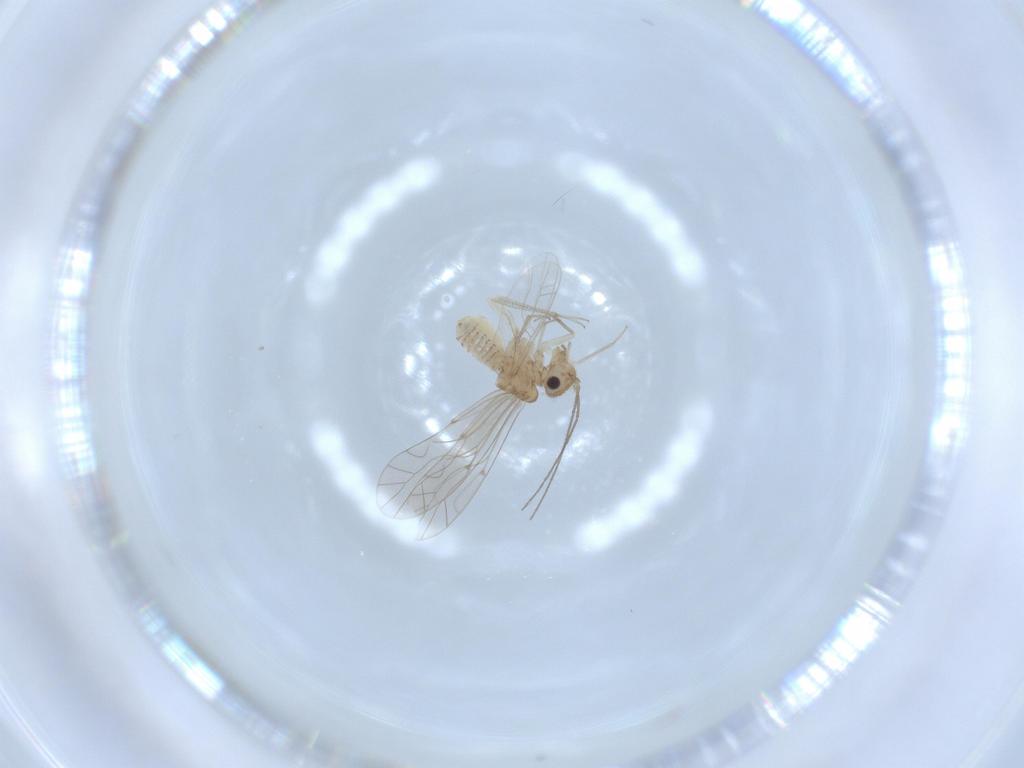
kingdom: Animalia
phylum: Arthropoda
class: Insecta
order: Psocodea
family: Lachesillidae
